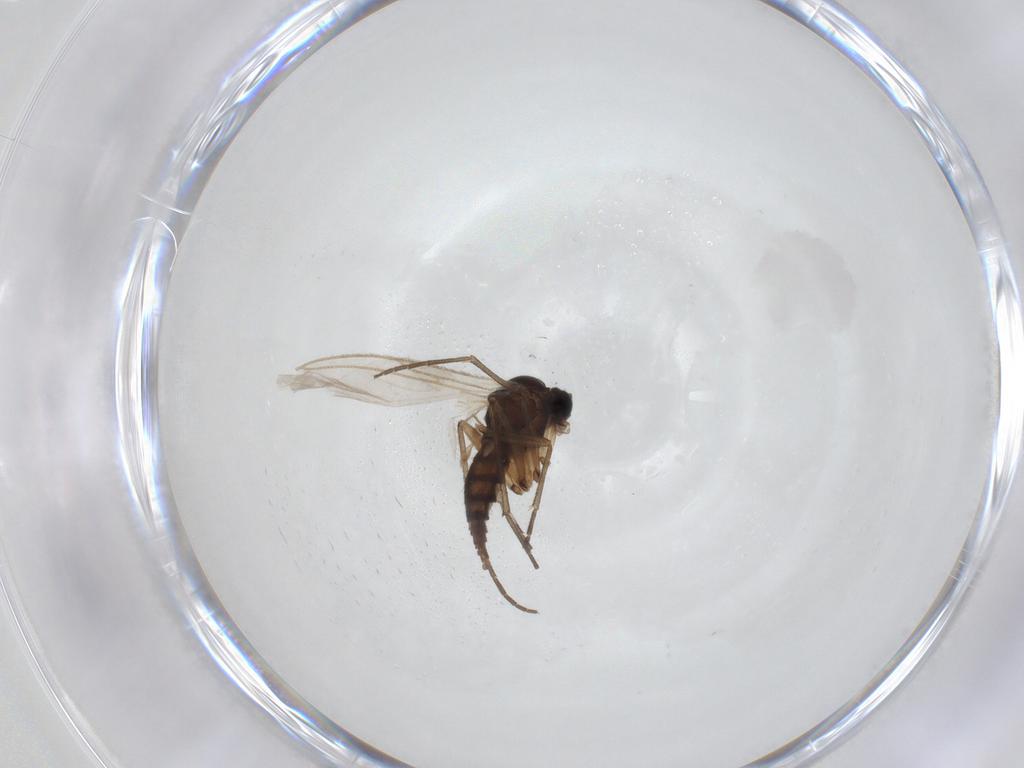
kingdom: Animalia
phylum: Arthropoda
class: Insecta
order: Diptera
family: Sciaridae
